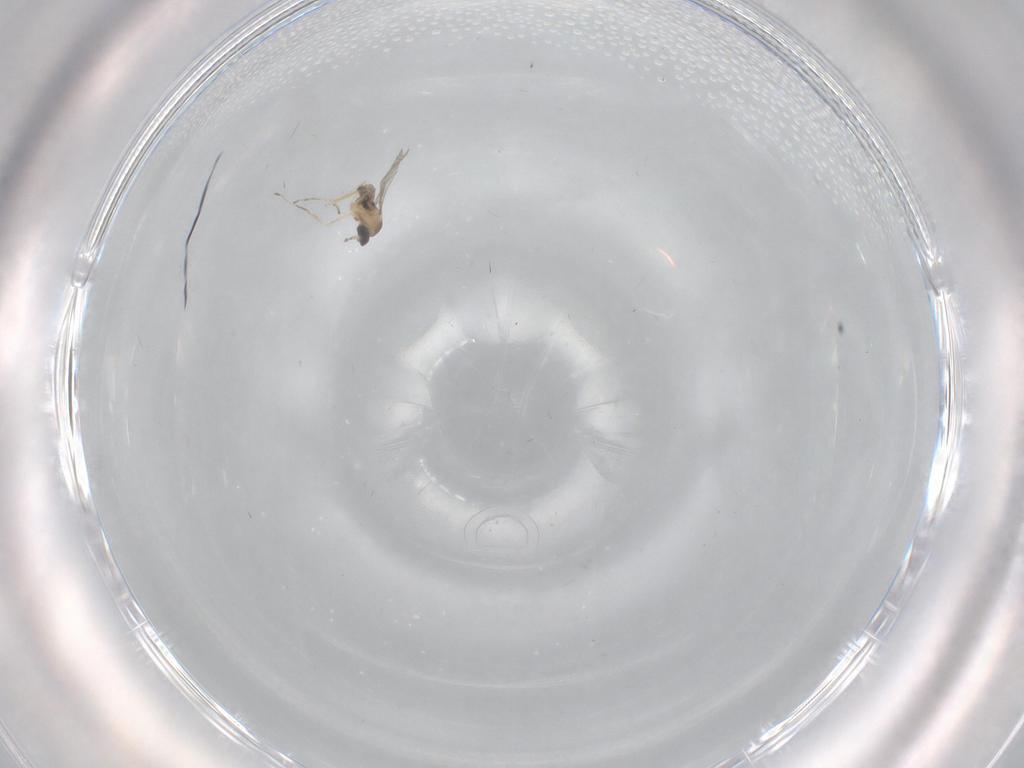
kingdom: Animalia
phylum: Arthropoda
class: Insecta
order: Diptera
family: Cecidomyiidae
